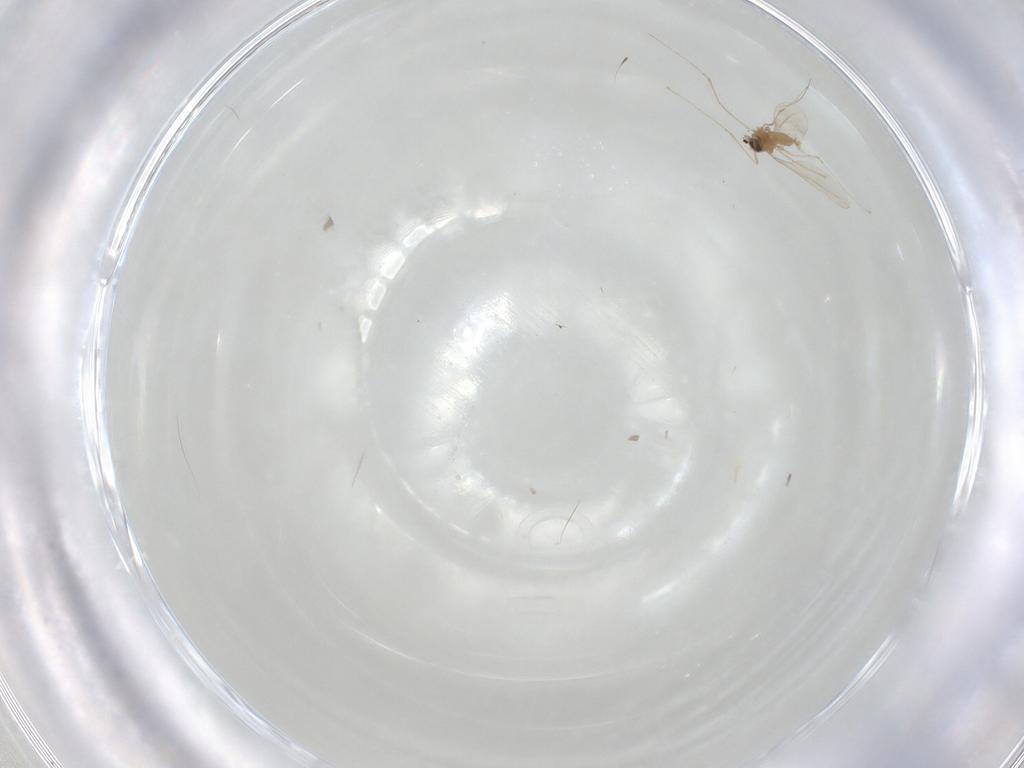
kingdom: Animalia
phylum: Arthropoda
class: Insecta
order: Diptera
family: Cecidomyiidae
